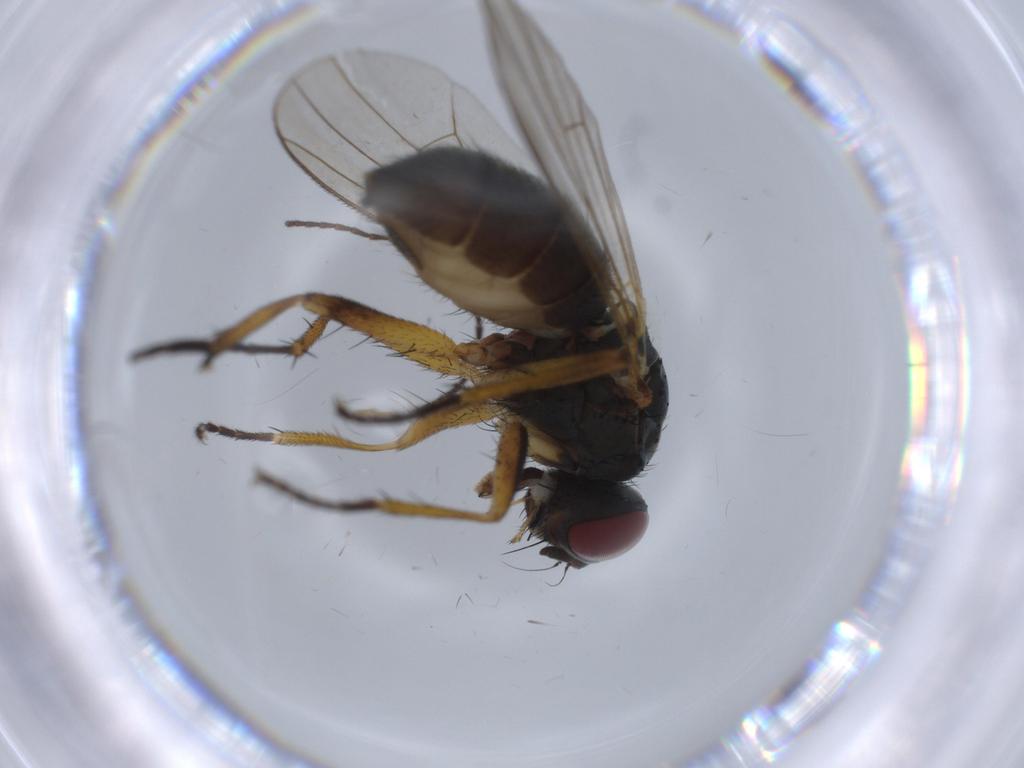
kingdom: Animalia
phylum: Arthropoda
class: Insecta
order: Diptera
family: Muscidae
